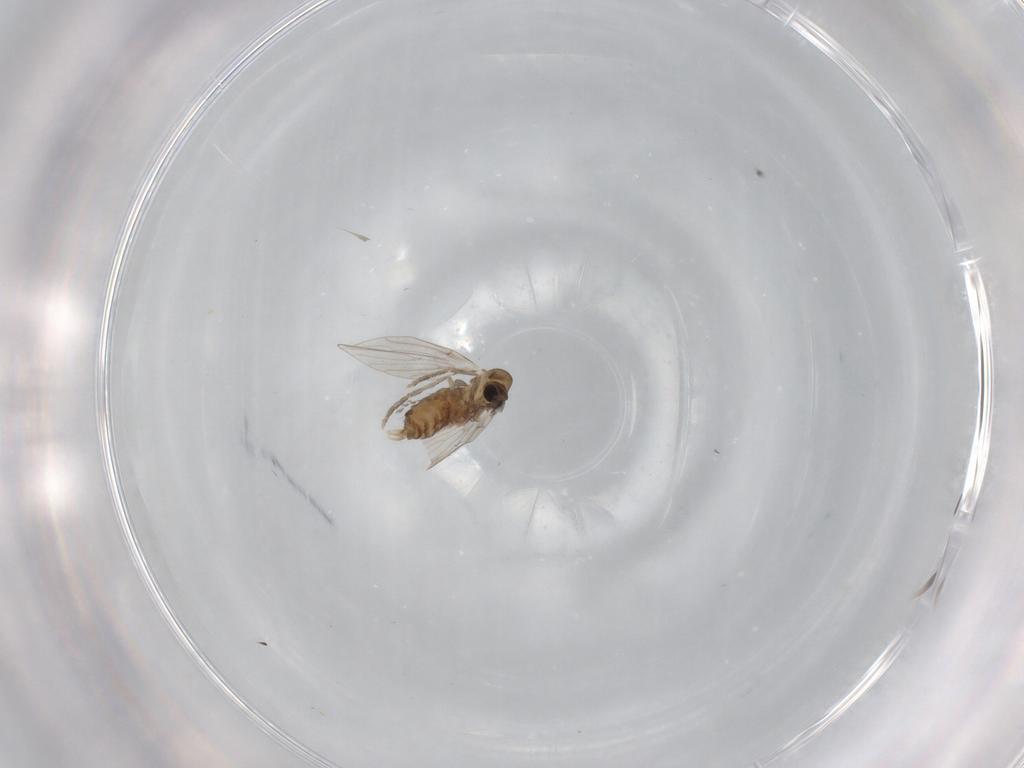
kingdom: Animalia
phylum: Arthropoda
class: Insecta
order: Diptera
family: Psychodidae
